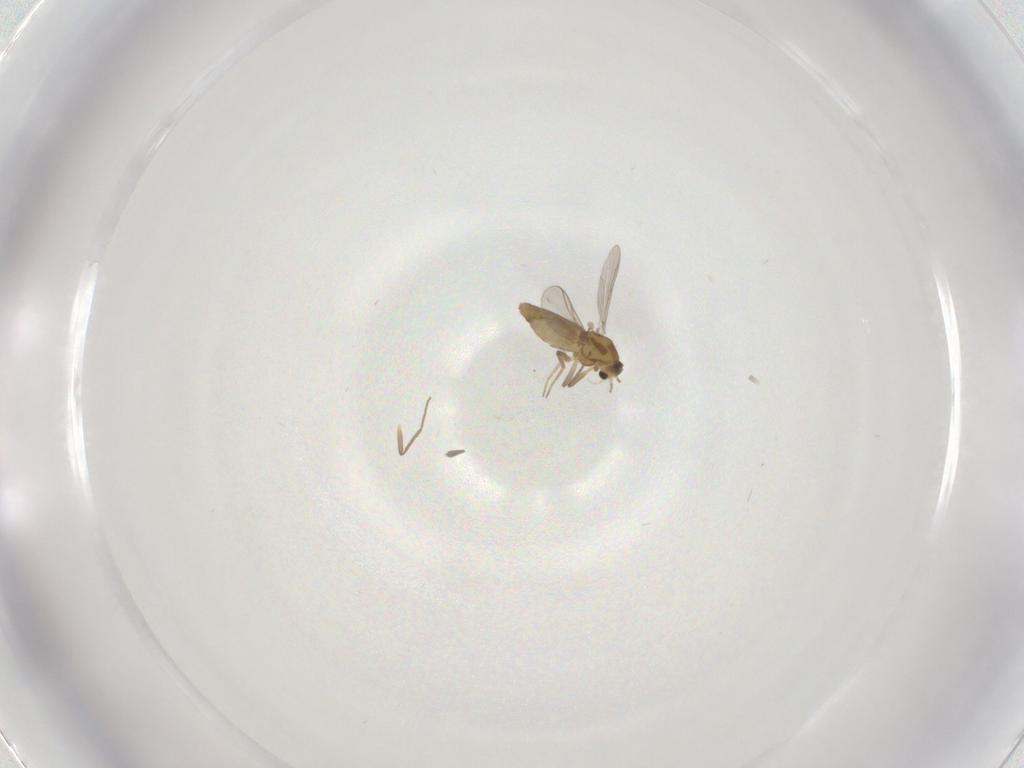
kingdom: Animalia
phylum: Arthropoda
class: Insecta
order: Diptera
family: Chironomidae
